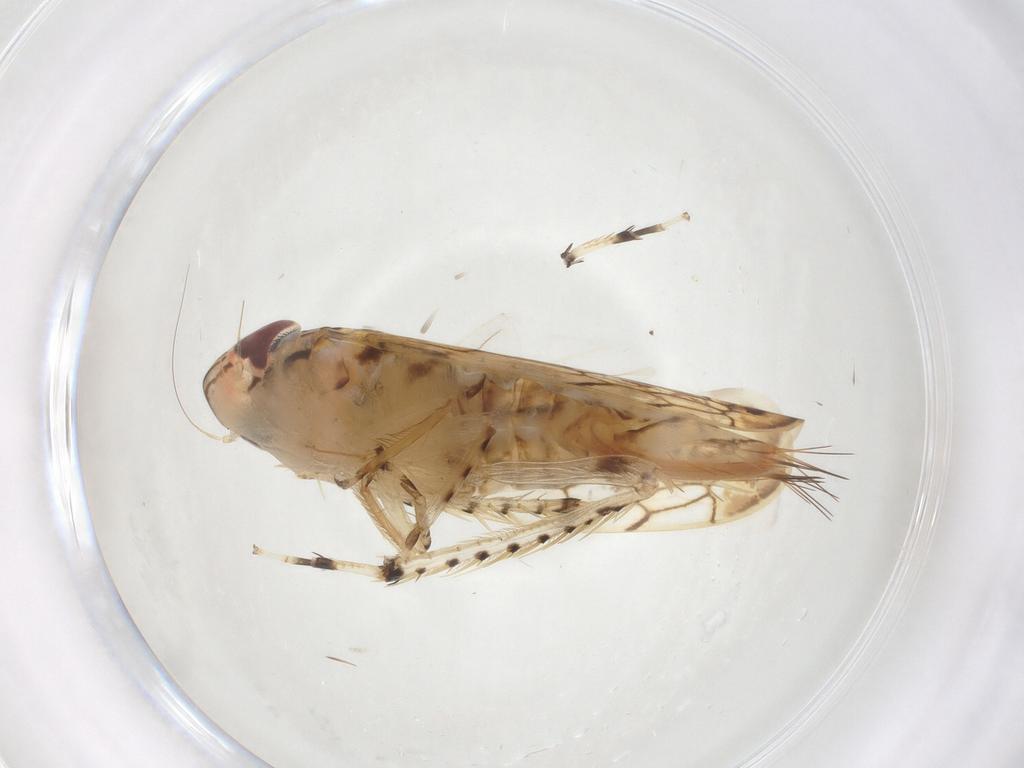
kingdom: Animalia
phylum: Arthropoda
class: Insecta
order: Hemiptera
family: Cicadellidae
